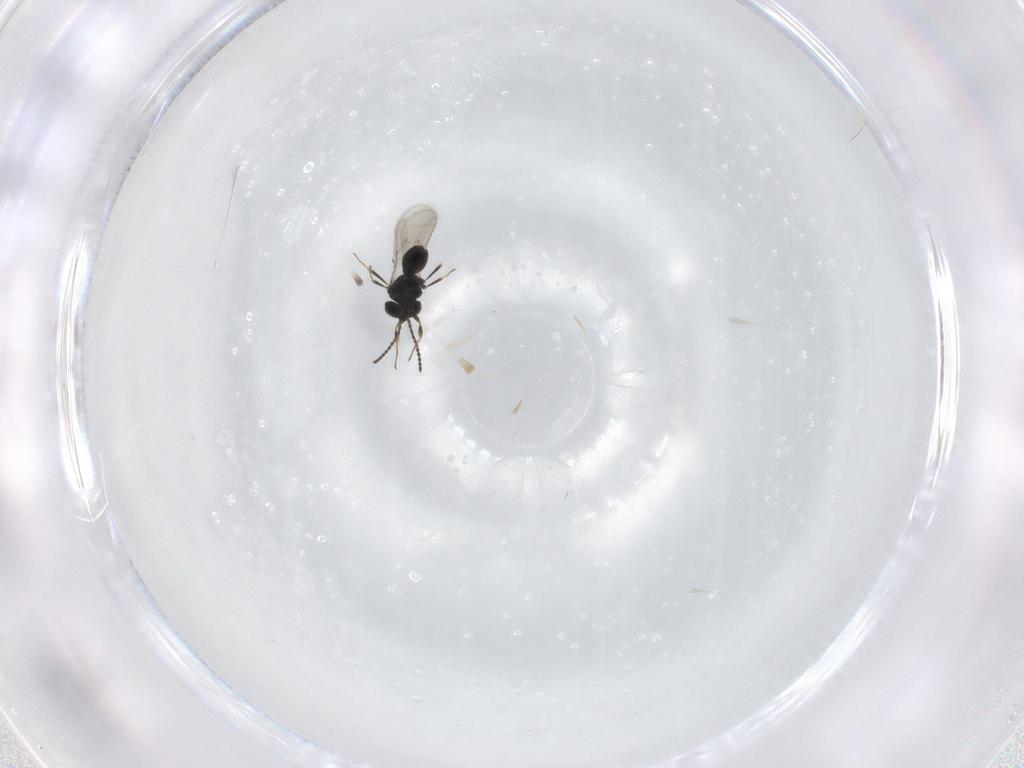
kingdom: Animalia
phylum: Arthropoda
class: Insecta
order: Hymenoptera
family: Scelionidae
